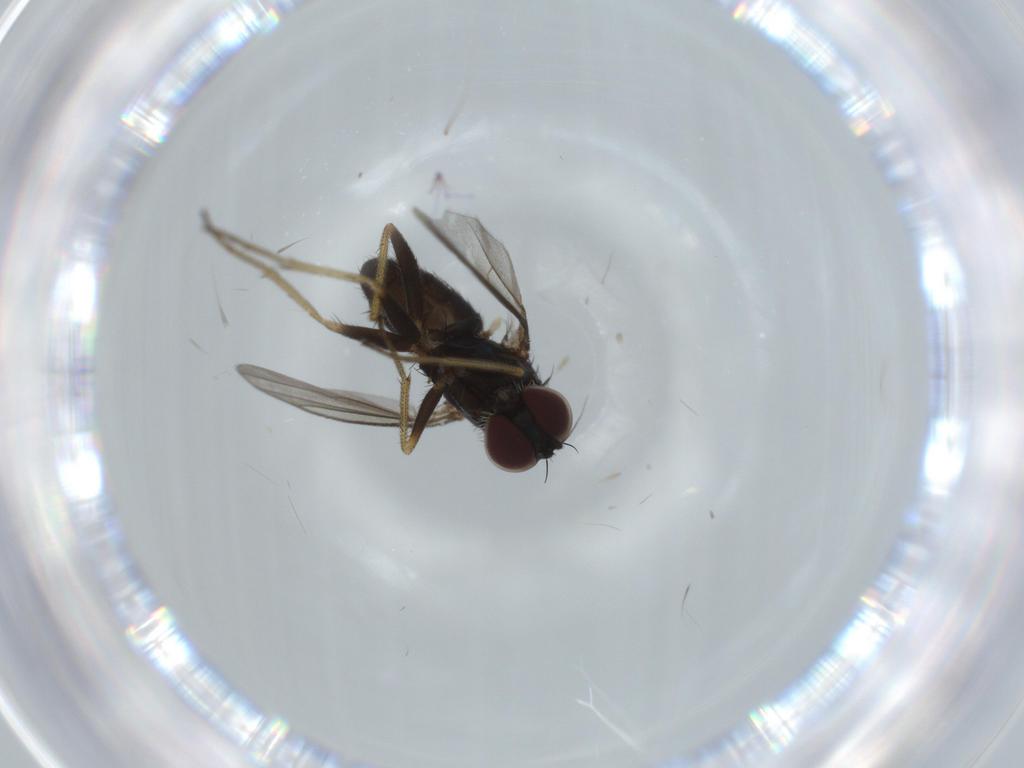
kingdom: Animalia
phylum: Arthropoda
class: Insecta
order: Diptera
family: Dolichopodidae
